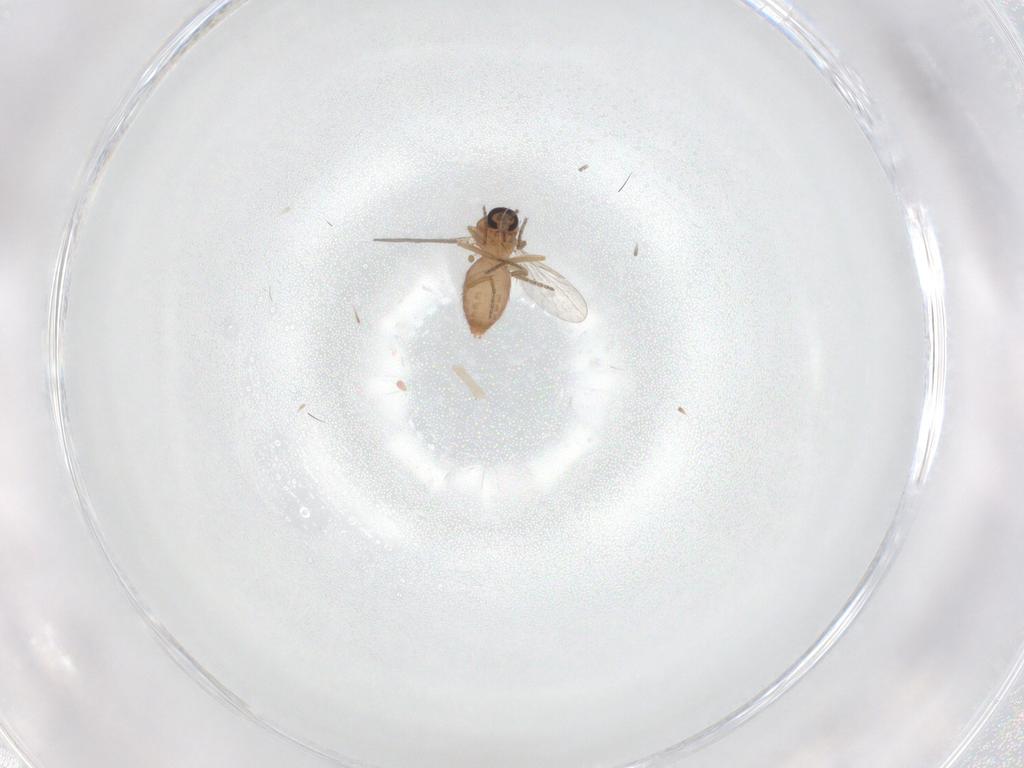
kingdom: Animalia
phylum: Arthropoda
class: Insecta
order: Diptera
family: Ceratopogonidae
